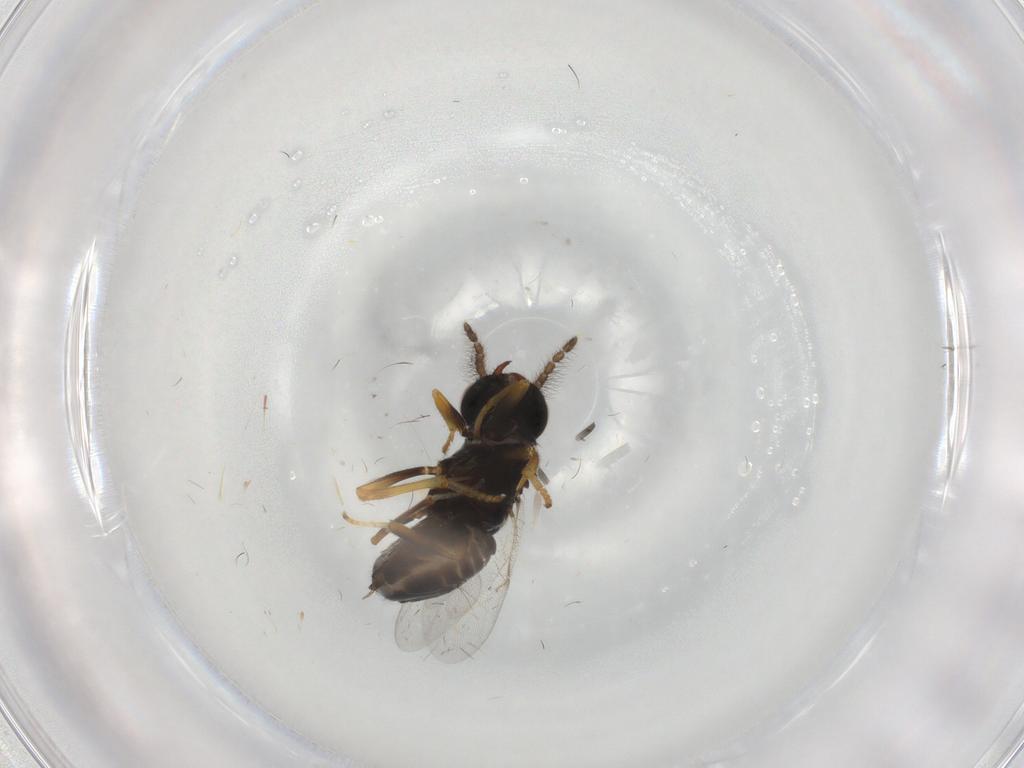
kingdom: Animalia
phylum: Arthropoda
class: Insecta
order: Diptera
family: Psychodidae
